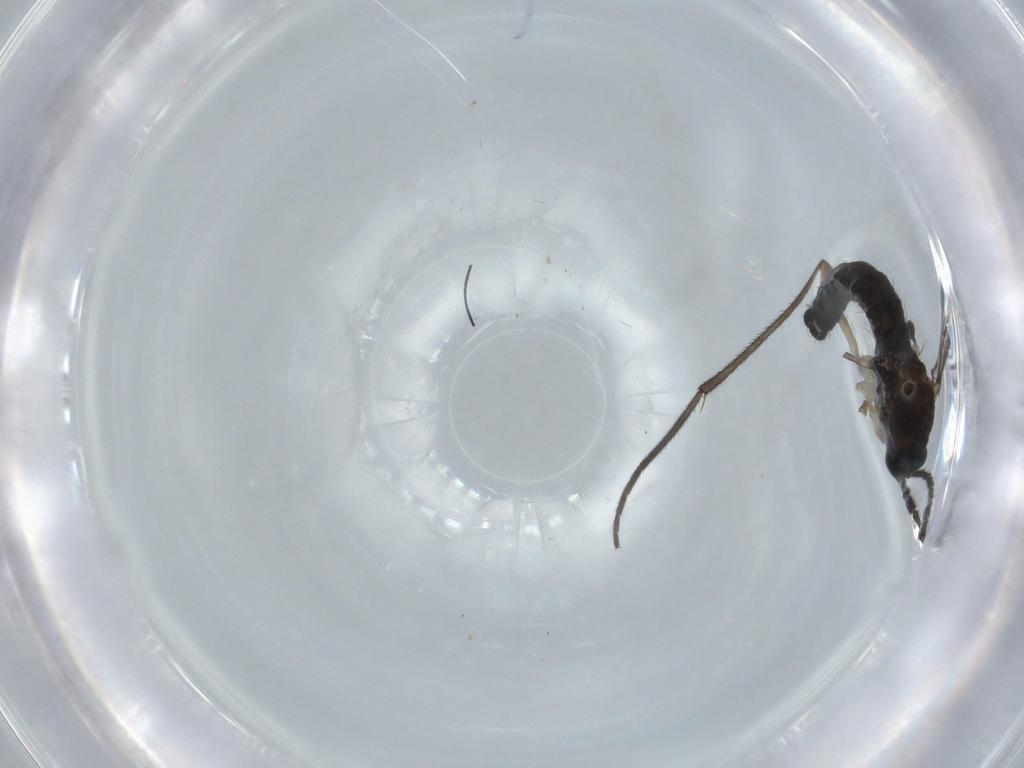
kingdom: Animalia
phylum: Arthropoda
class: Insecta
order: Diptera
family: Sciaridae
